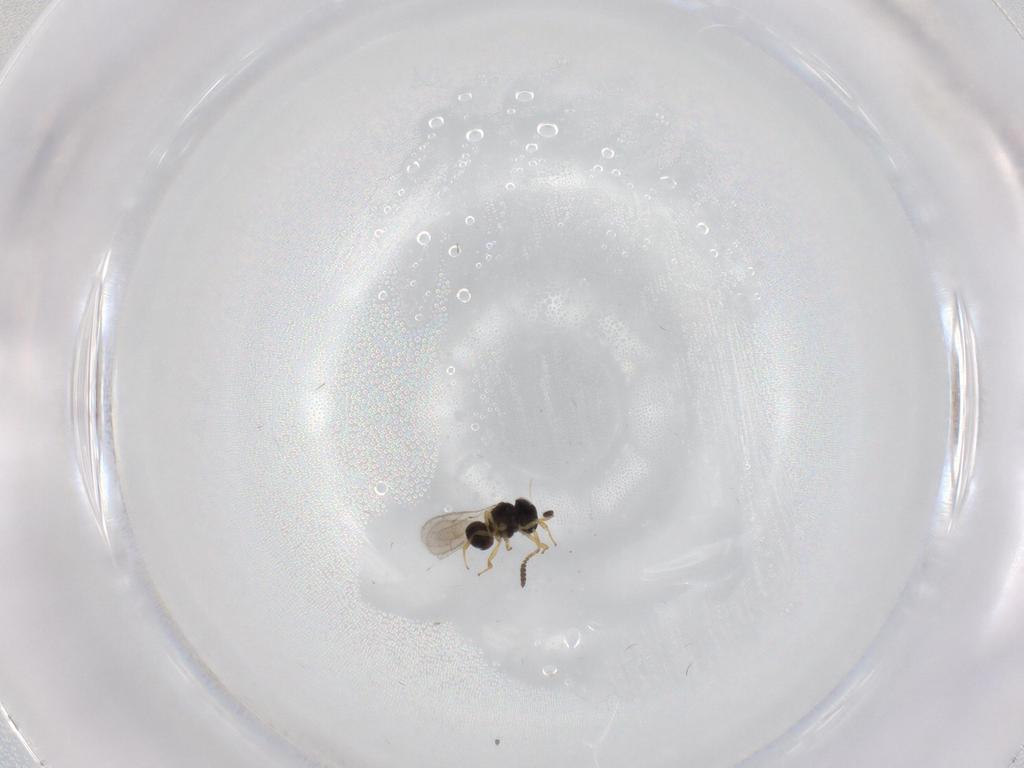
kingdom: Animalia
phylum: Arthropoda
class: Insecta
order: Hymenoptera
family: Scelionidae
